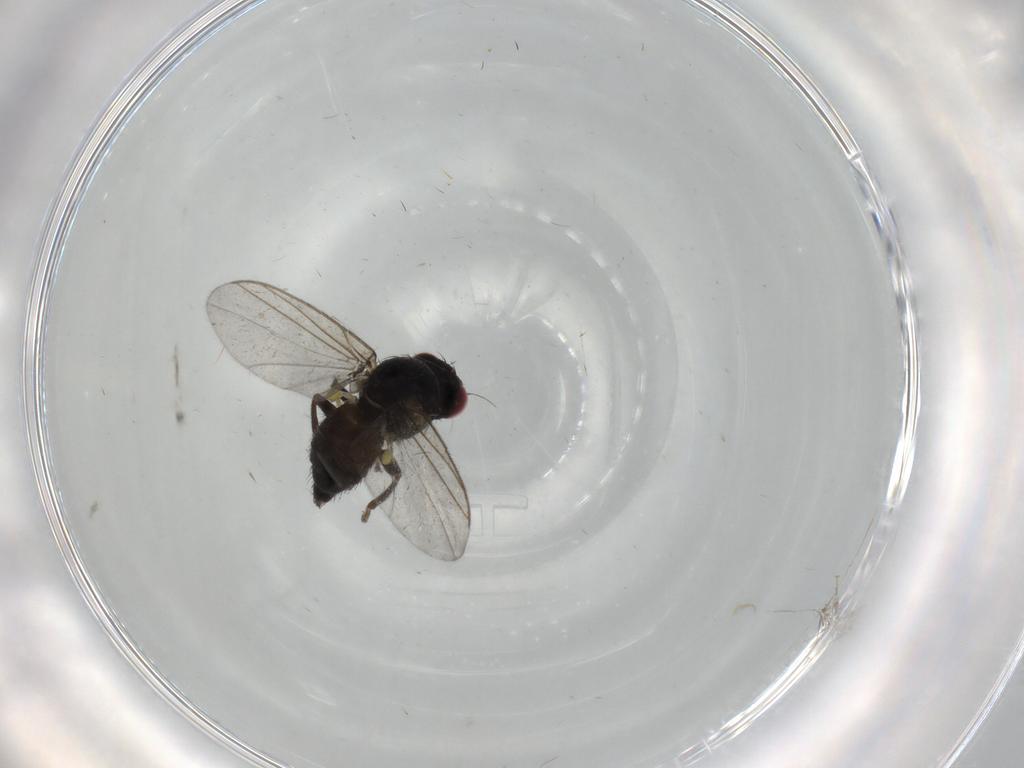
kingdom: Animalia
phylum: Arthropoda
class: Insecta
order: Diptera
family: Agromyzidae
